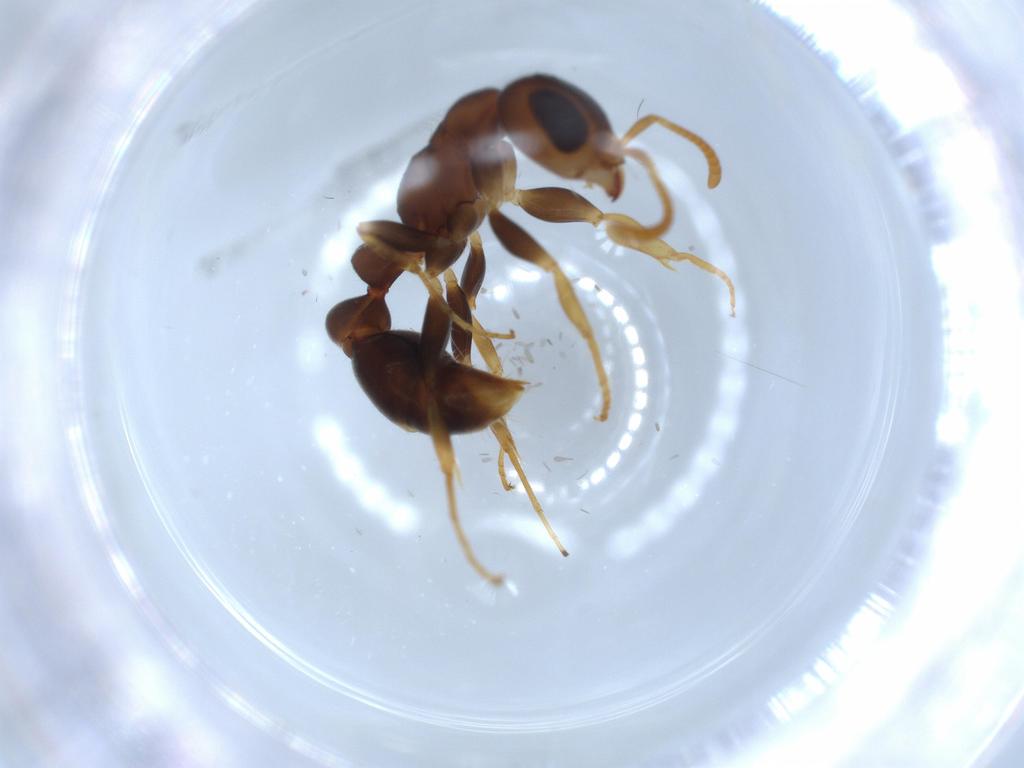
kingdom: Animalia
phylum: Arthropoda
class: Insecta
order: Hymenoptera
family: Formicidae
